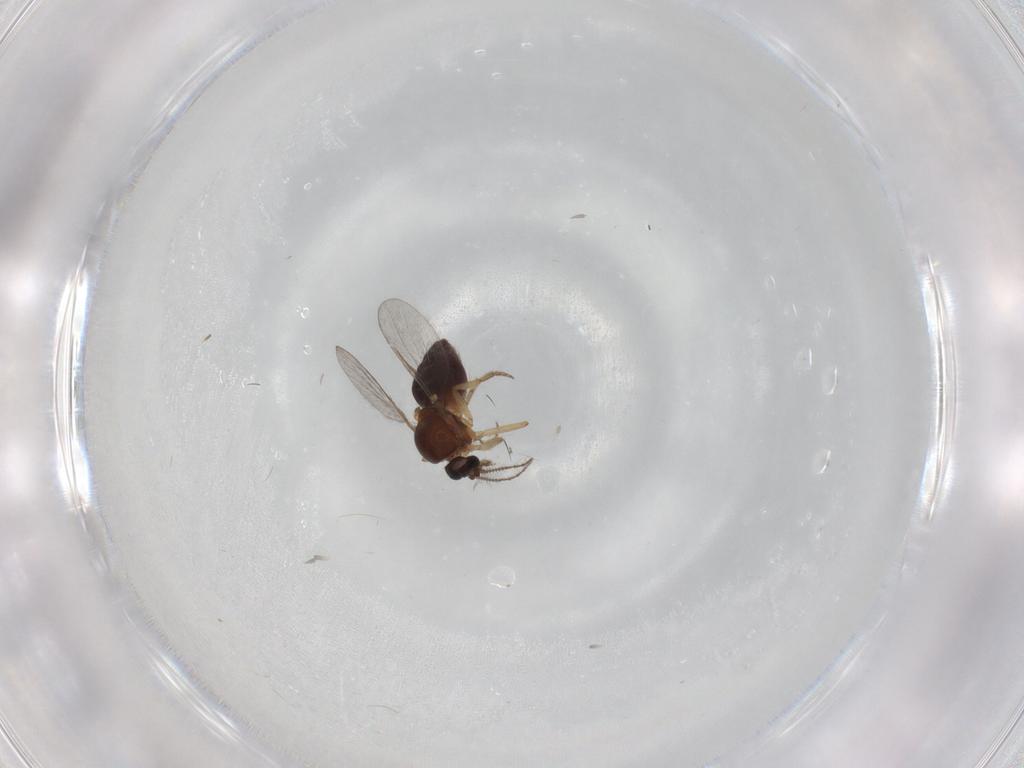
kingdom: Animalia
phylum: Arthropoda
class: Insecta
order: Diptera
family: Ceratopogonidae
